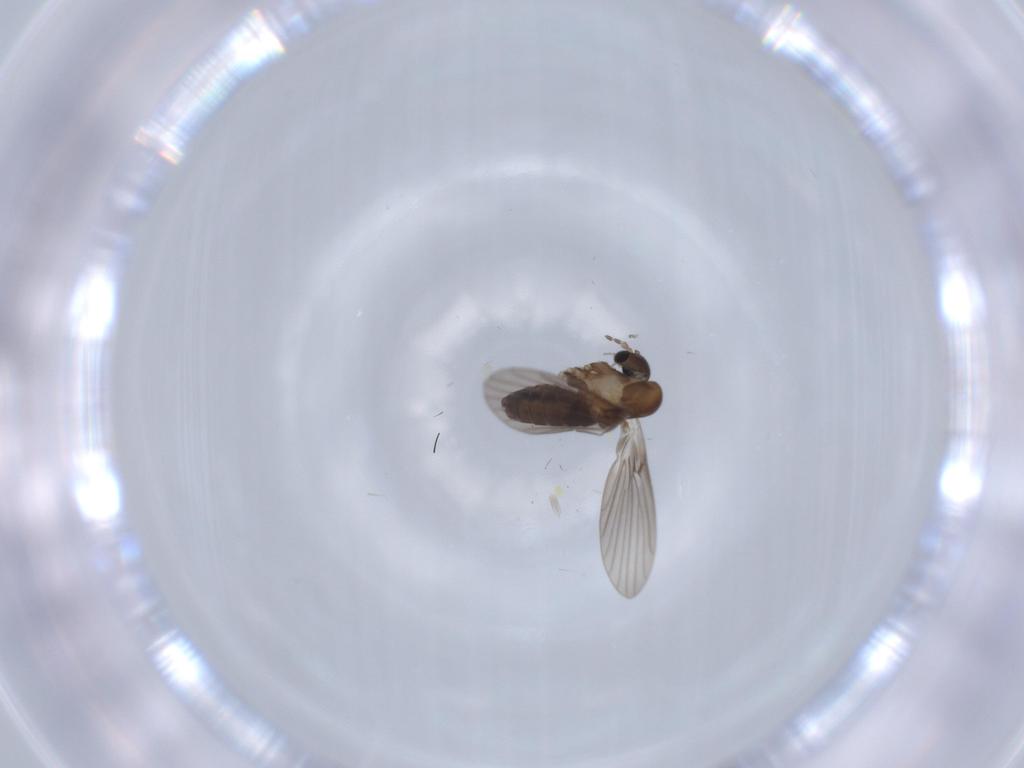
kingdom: Animalia
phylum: Arthropoda
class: Insecta
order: Diptera
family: Psychodidae
